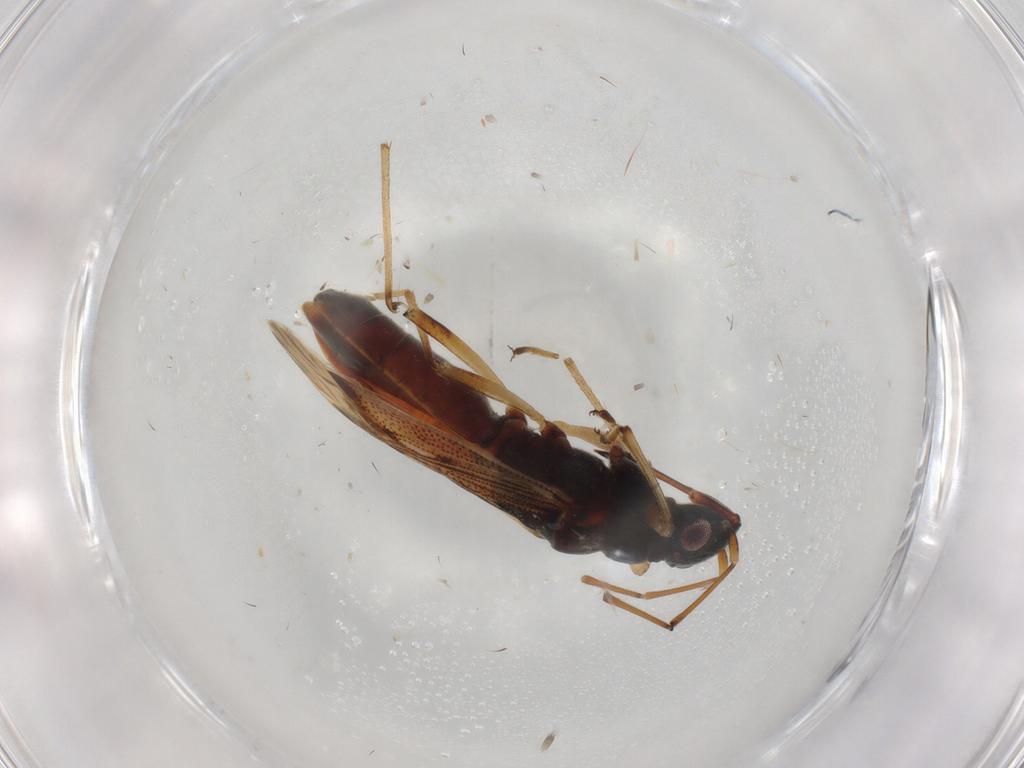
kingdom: Animalia
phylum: Arthropoda
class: Insecta
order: Hemiptera
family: Rhyparochromidae
